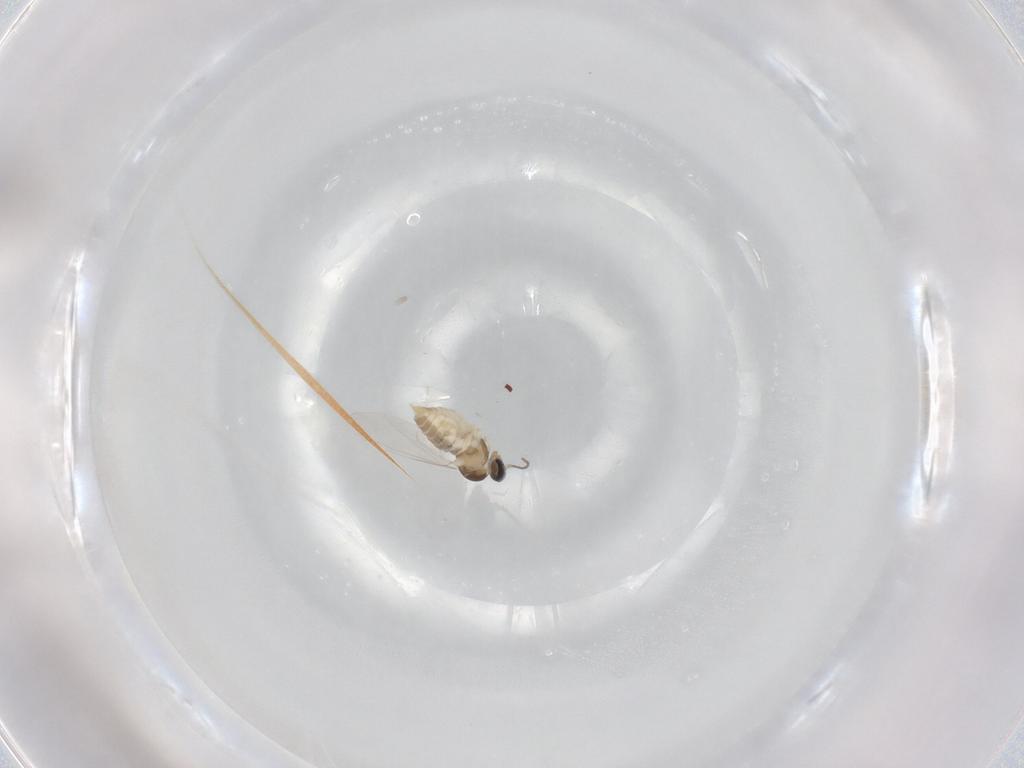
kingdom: Animalia
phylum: Arthropoda
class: Insecta
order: Diptera
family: Cecidomyiidae
